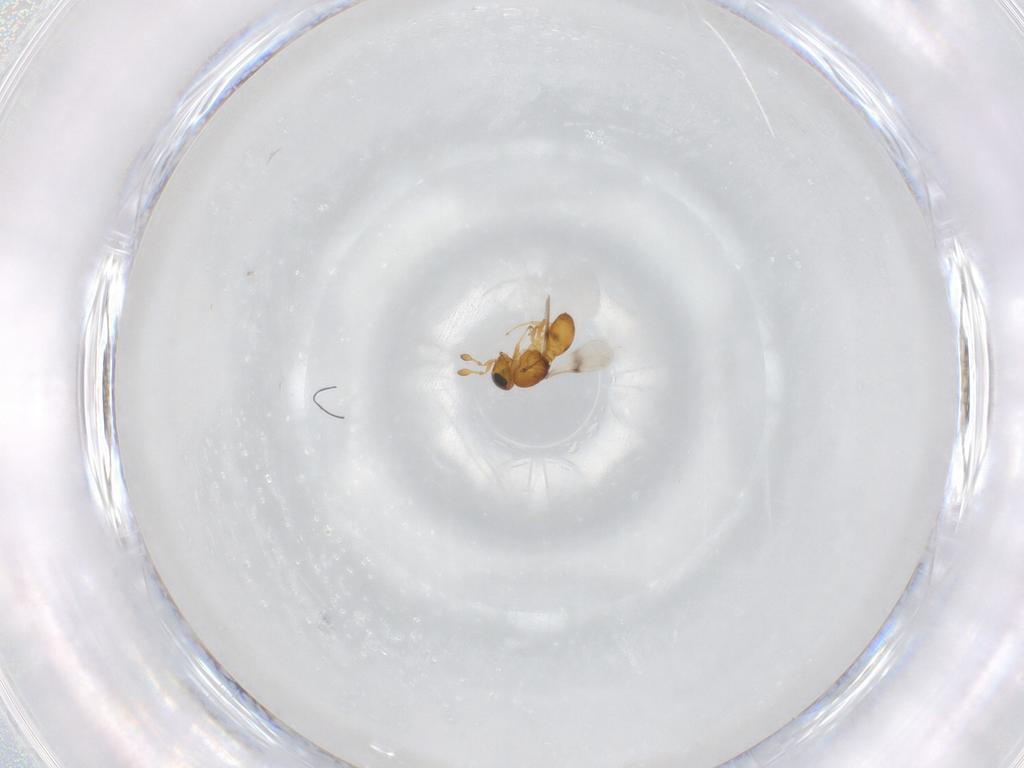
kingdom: Animalia
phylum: Arthropoda
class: Insecta
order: Hymenoptera
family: Scelionidae
